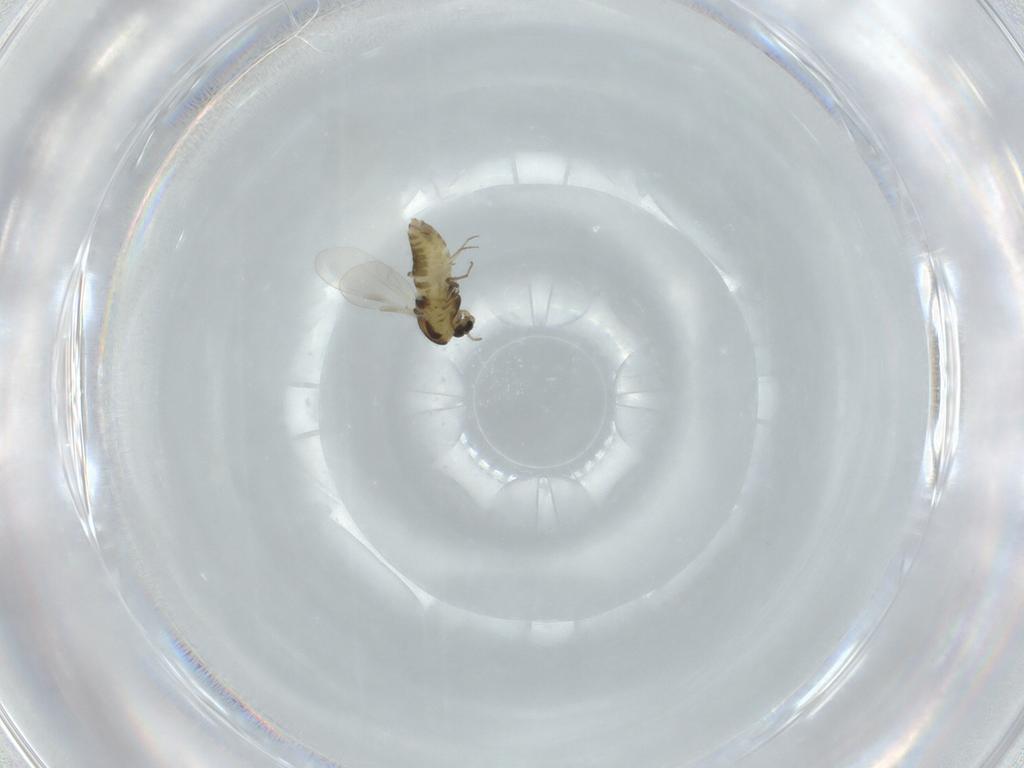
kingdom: Animalia
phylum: Arthropoda
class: Insecta
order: Diptera
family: Chironomidae
